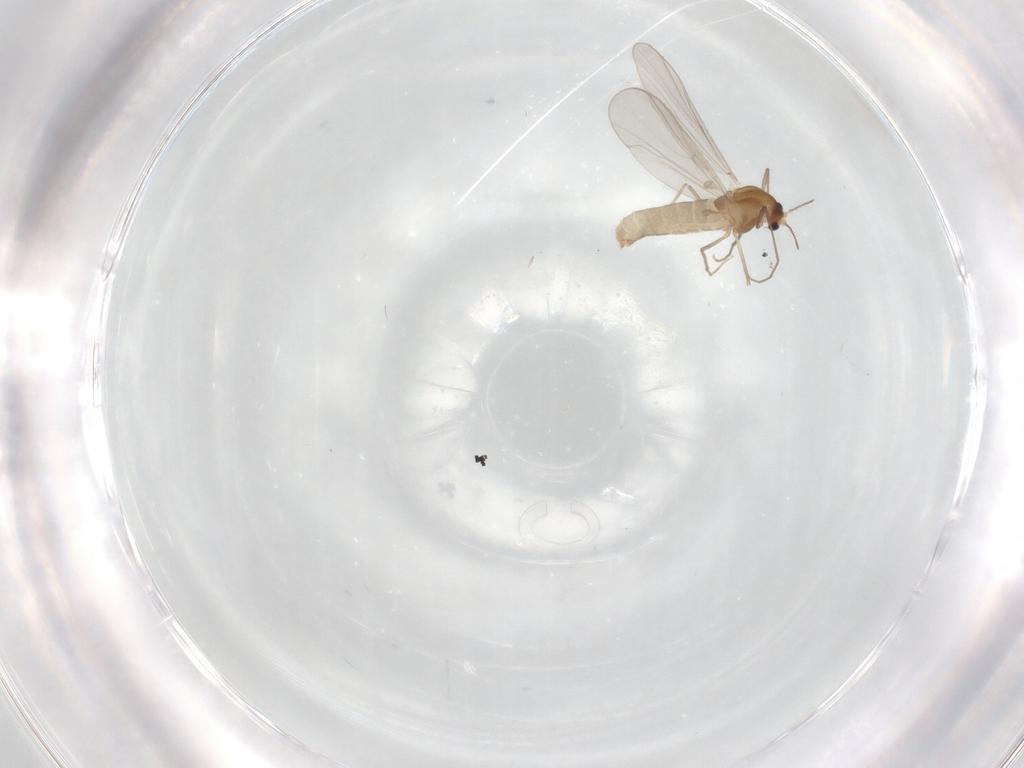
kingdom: Animalia
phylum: Arthropoda
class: Insecta
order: Diptera
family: Chironomidae
